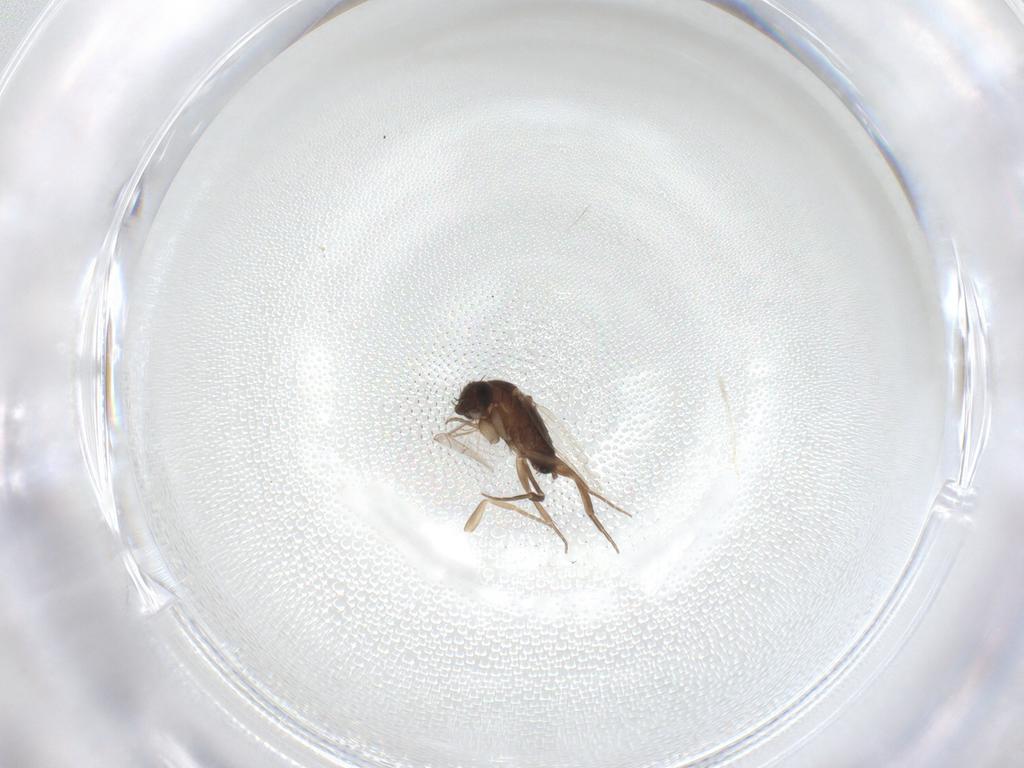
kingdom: Animalia
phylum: Arthropoda
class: Insecta
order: Diptera
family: Phoridae
